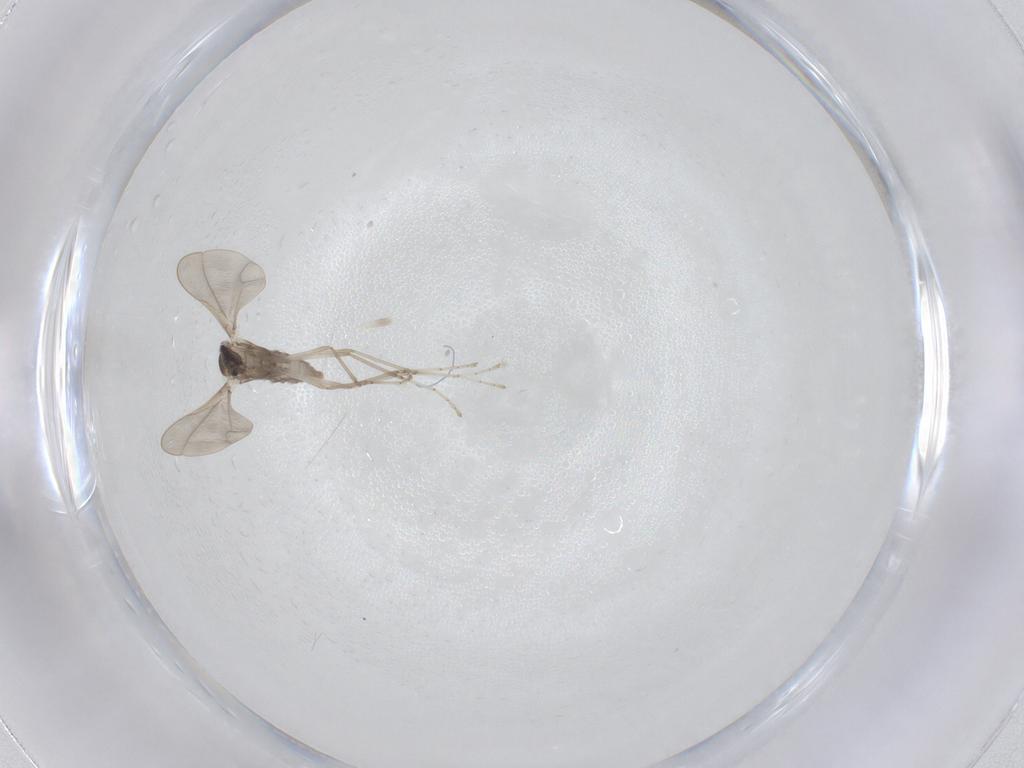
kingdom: Animalia
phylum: Arthropoda
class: Insecta
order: Diptera
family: Cecidomyiidae
